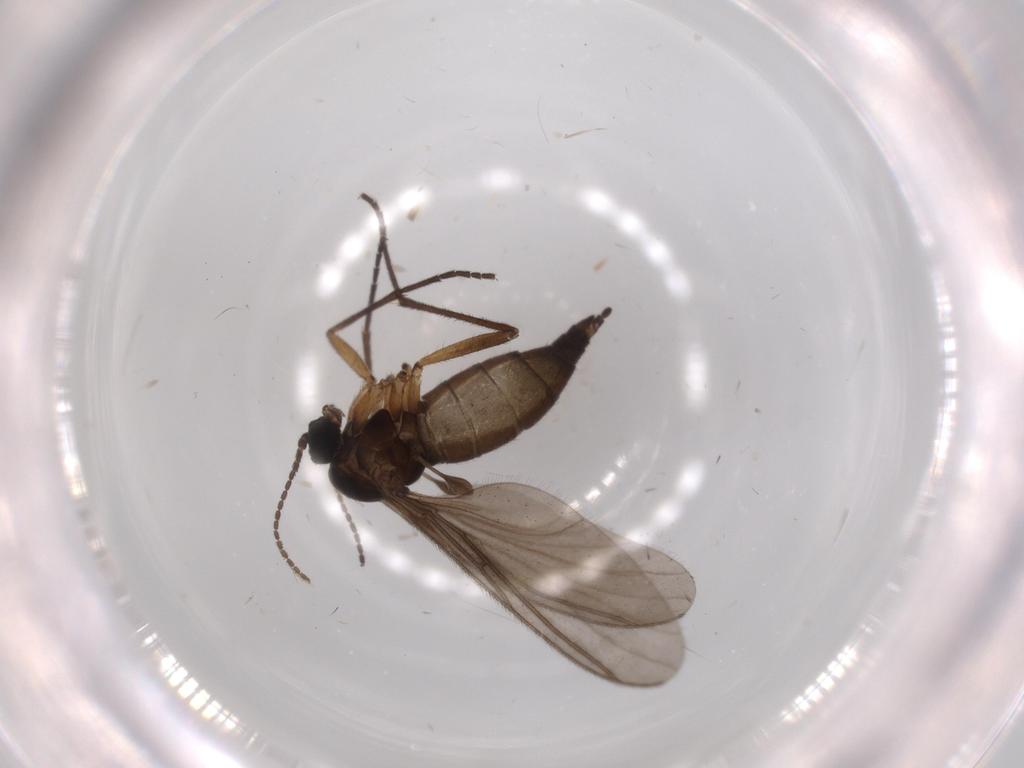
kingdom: Animalia
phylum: Arthropoda
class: Insecta
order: Diptera
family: Sciaridae
